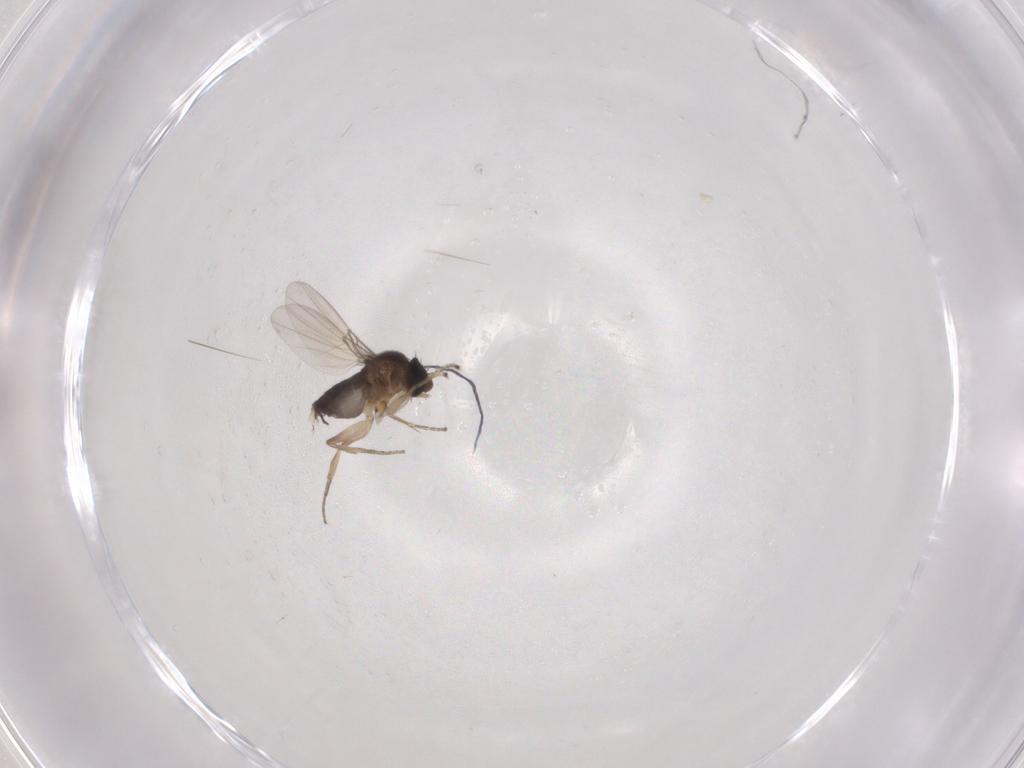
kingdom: Animalia
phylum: Arthropoda
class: Insecta
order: Diptera
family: Phoridae
